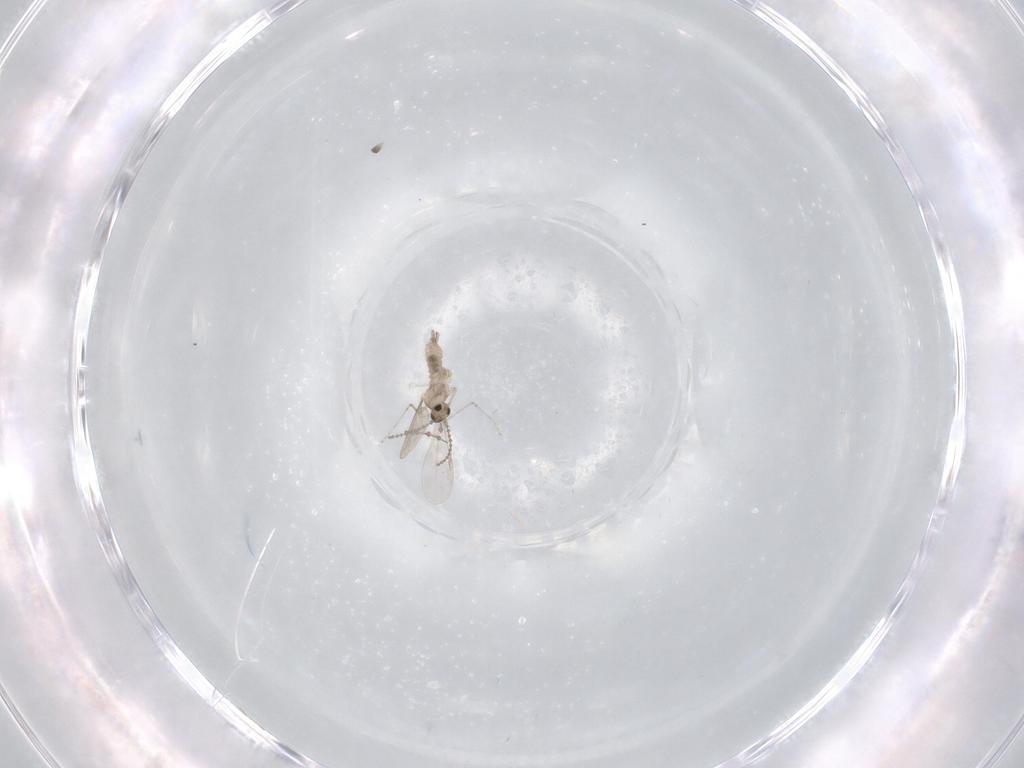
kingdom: Animalia
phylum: Arthropoda
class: Insecta
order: Diptera
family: Cecidomyiidae
